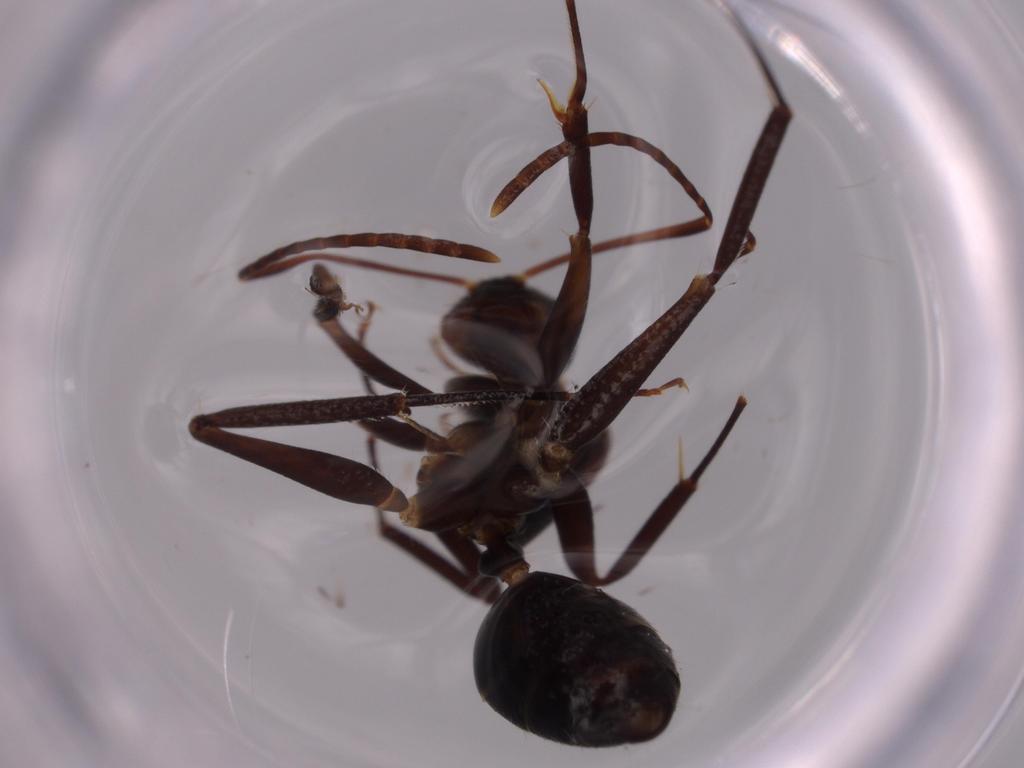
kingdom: Animalia
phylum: Arthropoda
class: Insecta
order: Hymenoptera
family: Formicidae
